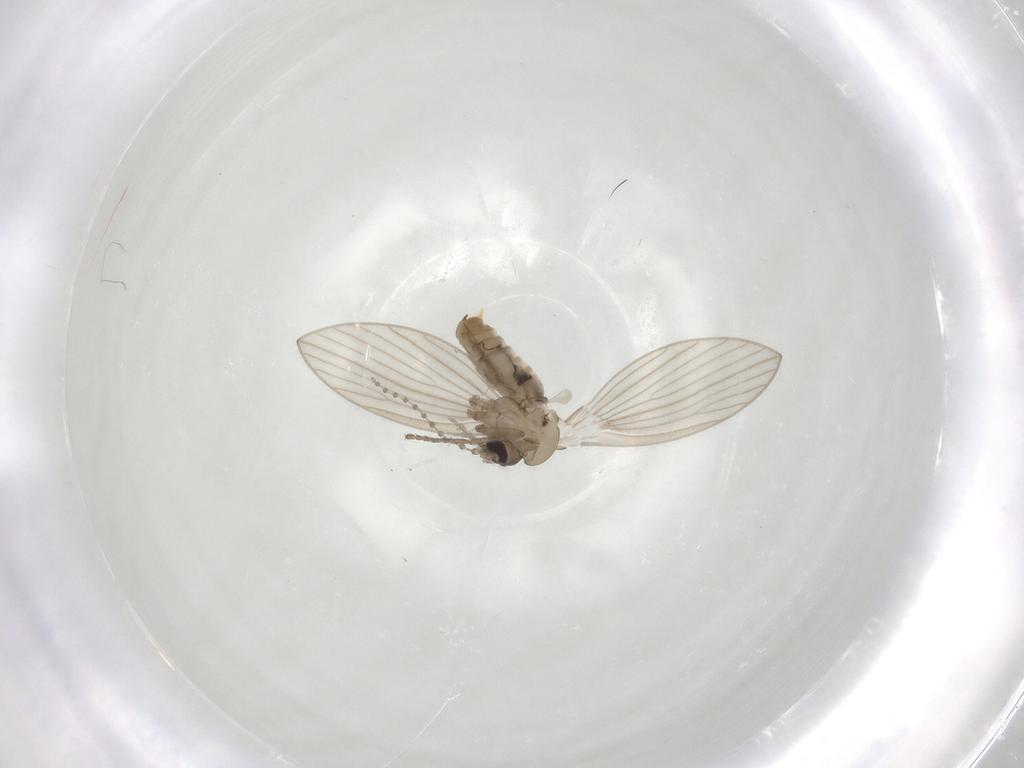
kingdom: Animalia
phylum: Arthropoda
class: Insecta
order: Diptera
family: Psychodidae
